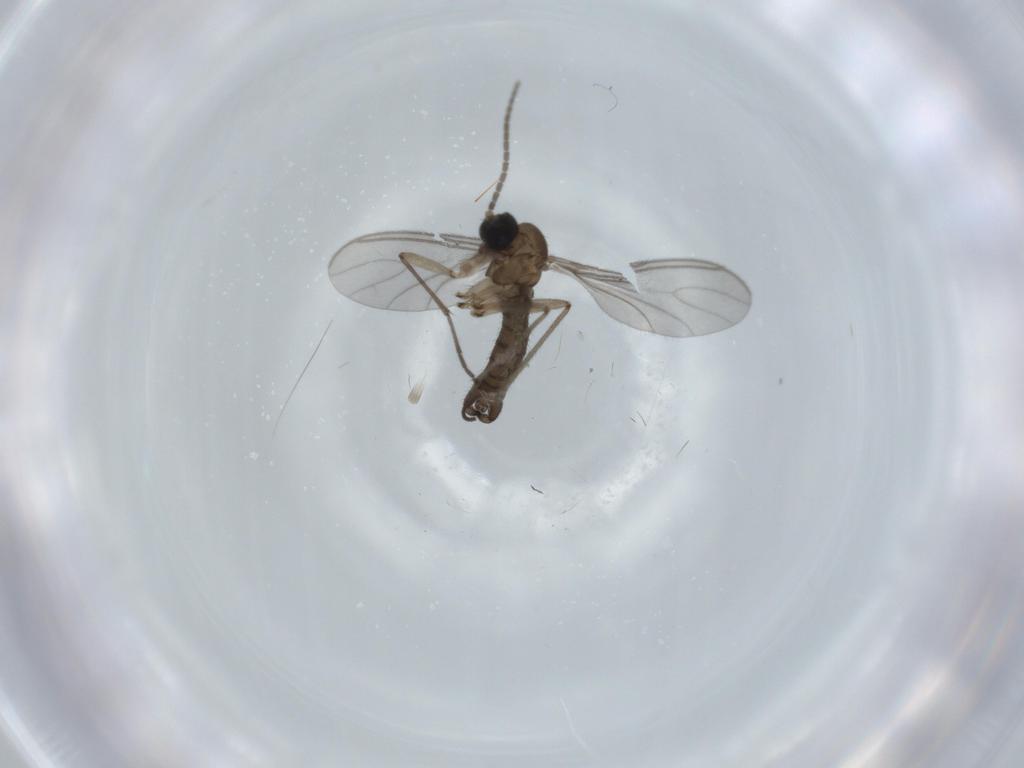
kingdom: Animalia
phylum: Arthropoda
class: Insecta
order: Diptera
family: Sciaridae
